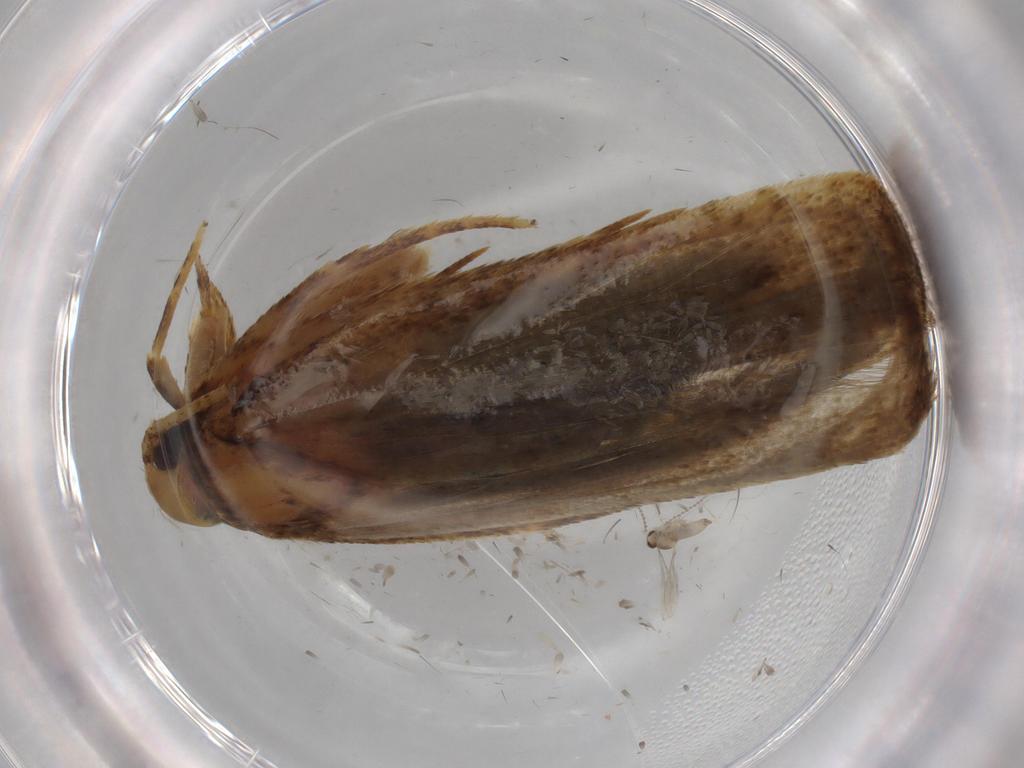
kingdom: Animalia
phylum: Arthropoda
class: Insecta
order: Lepidoptera
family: Autostichidae
